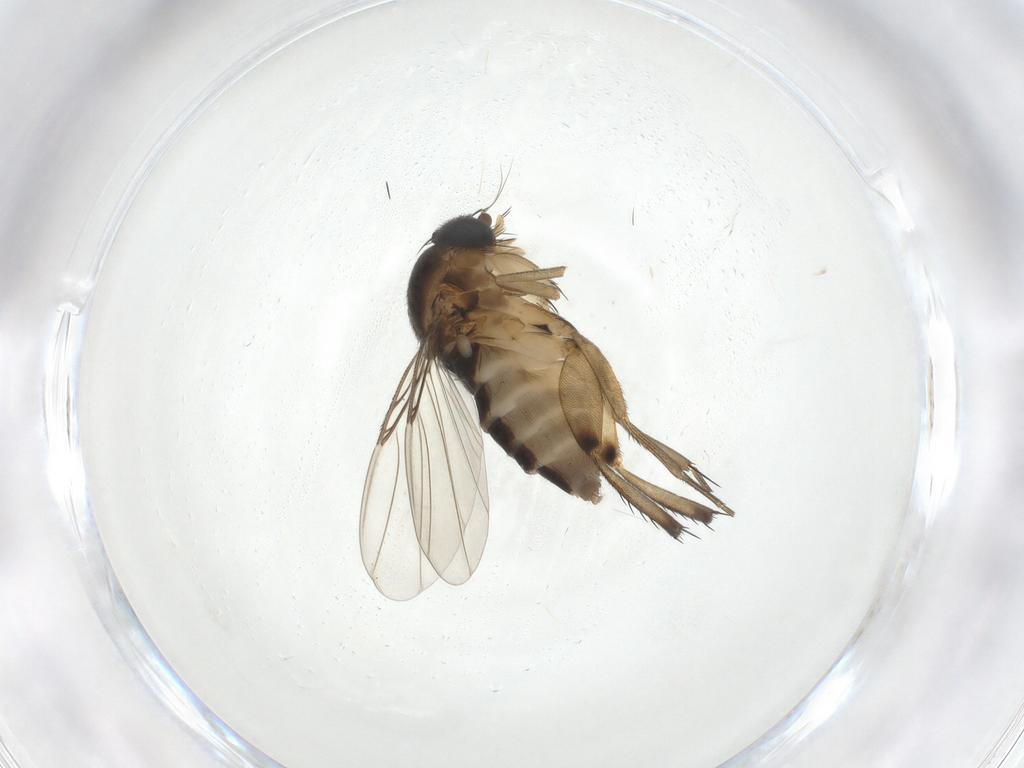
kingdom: Animalia
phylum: Arthropoda
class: Insecta
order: Diptera
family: Phoridae
